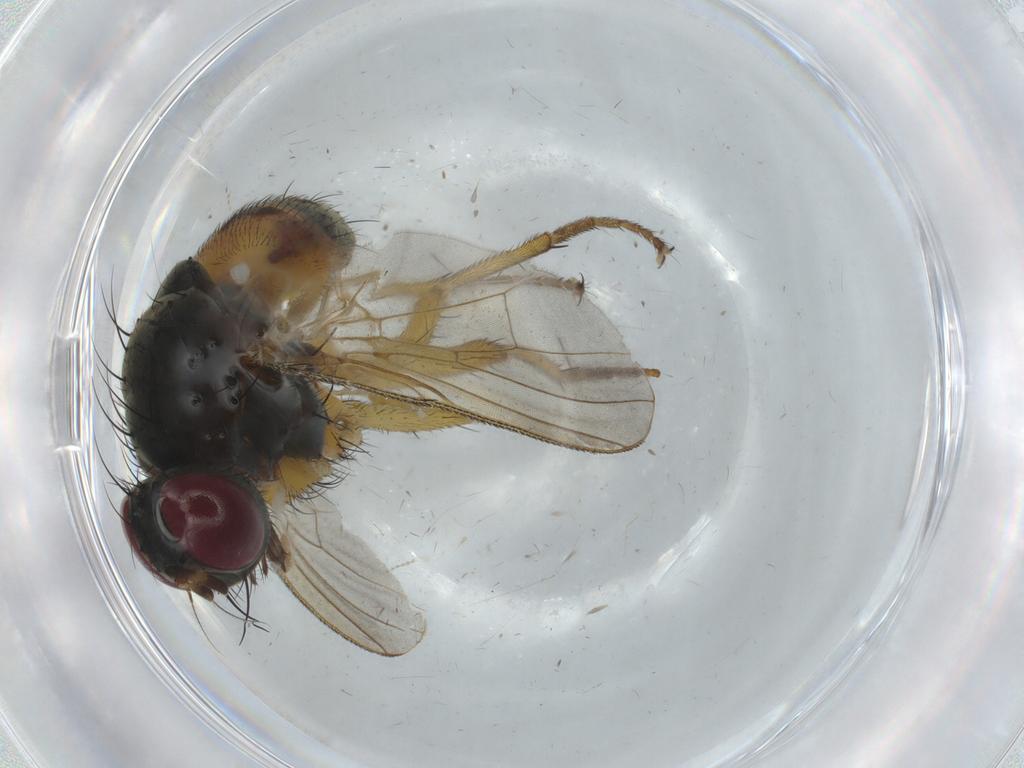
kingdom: Animalia
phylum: Arthropoda
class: Insecta
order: Diptera
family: Muscidae
